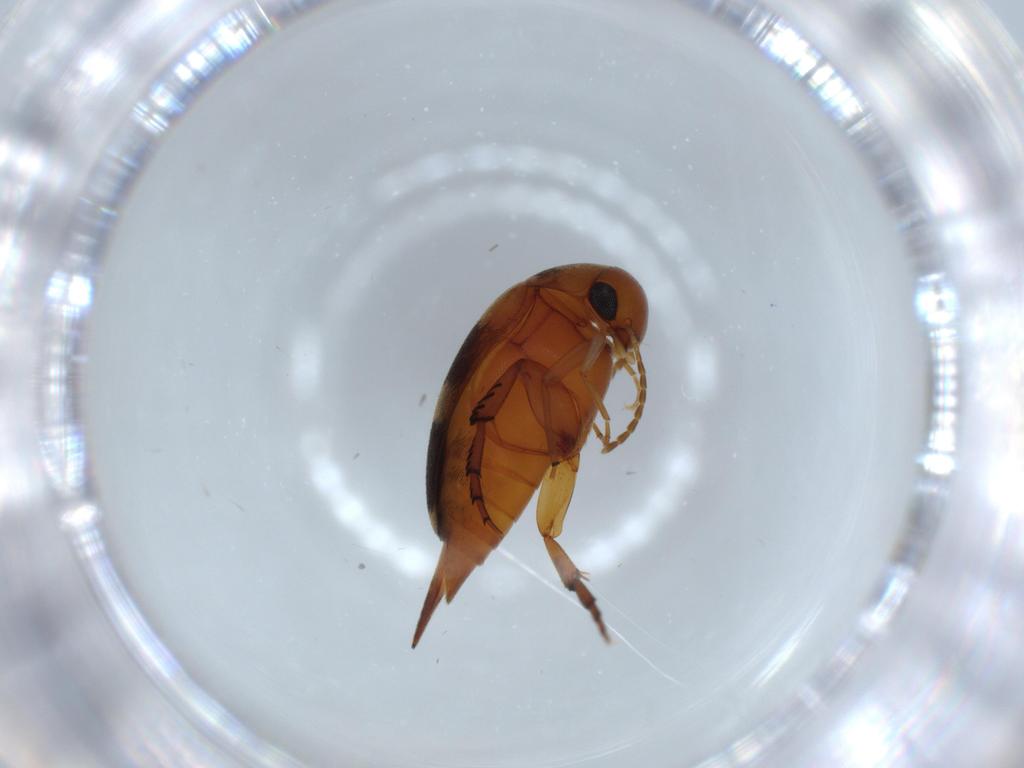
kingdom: Animalia
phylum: Arthropoda
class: Insecta
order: Coleoptera
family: Mordellidae
